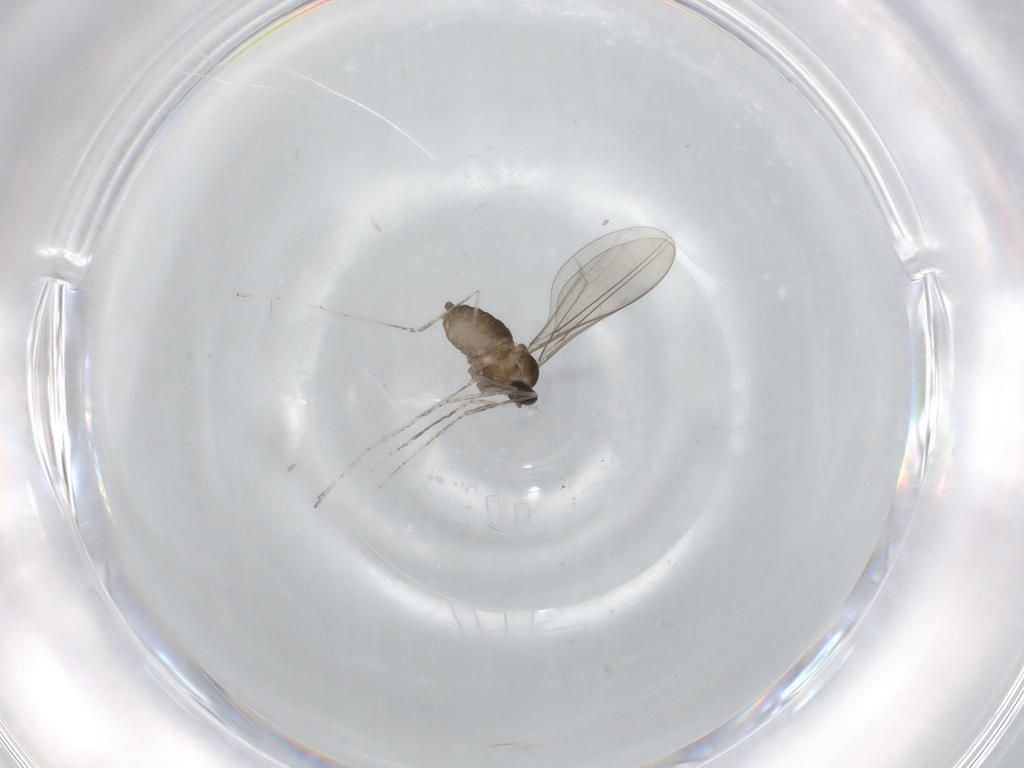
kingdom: Animalia
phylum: Arthropoda
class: Insecta
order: Diptera
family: Cecidomyiidae
